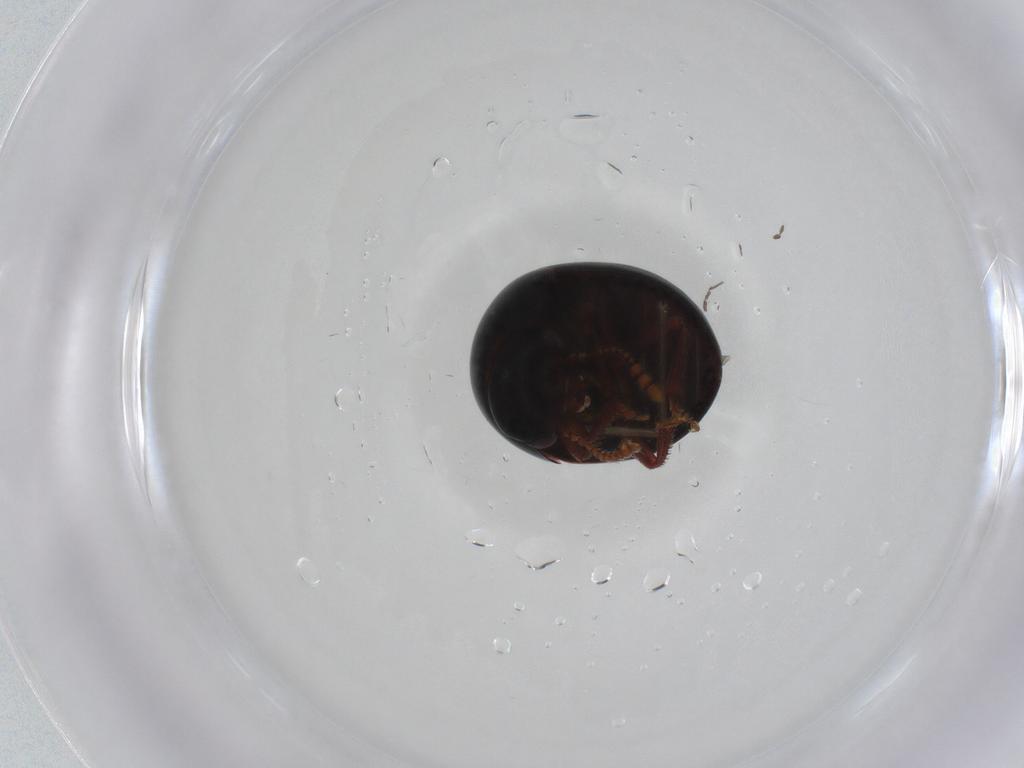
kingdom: Animalia
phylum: Arthropoda
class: Insecta
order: Coleoptera
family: Leiodidae
